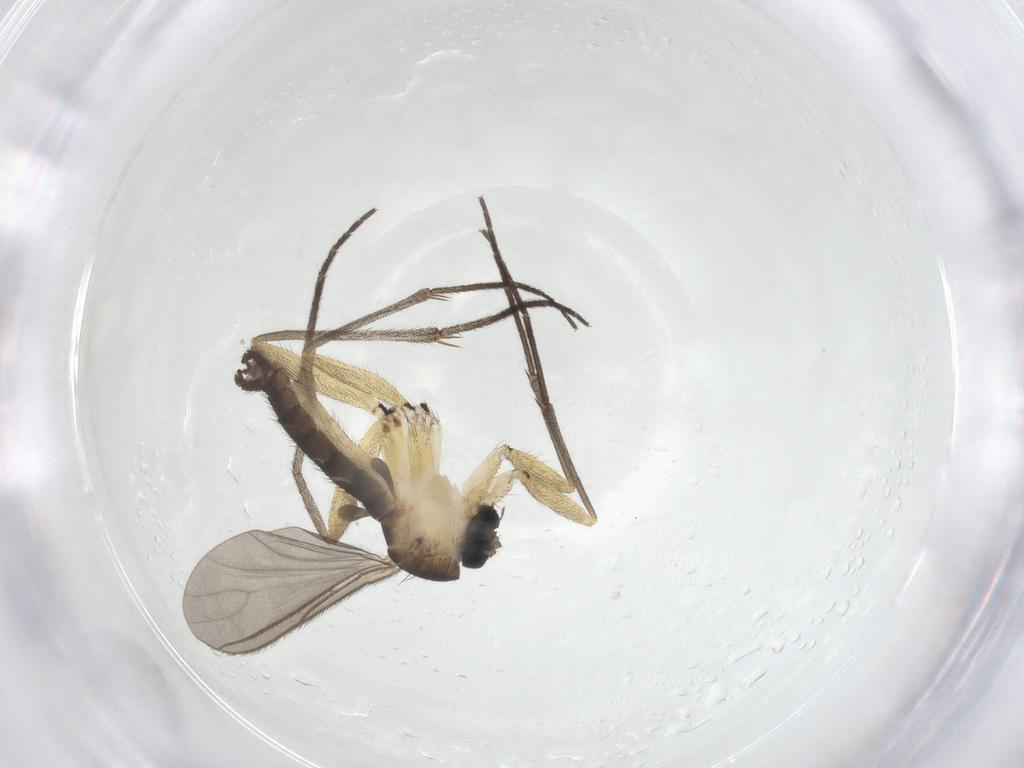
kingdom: Animalia
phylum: Arthropoda
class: Insecta
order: Diptera
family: Sciaridae
